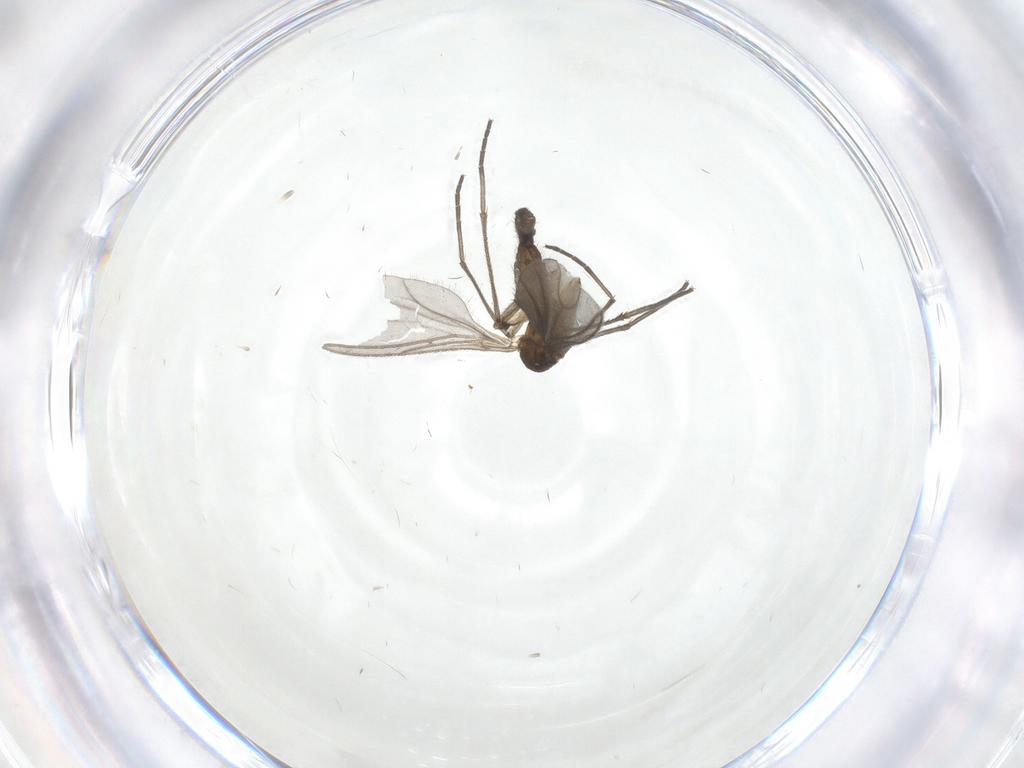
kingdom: Animalia
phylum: Arthropoda
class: Insecta
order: Diptera
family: Sciaridae
